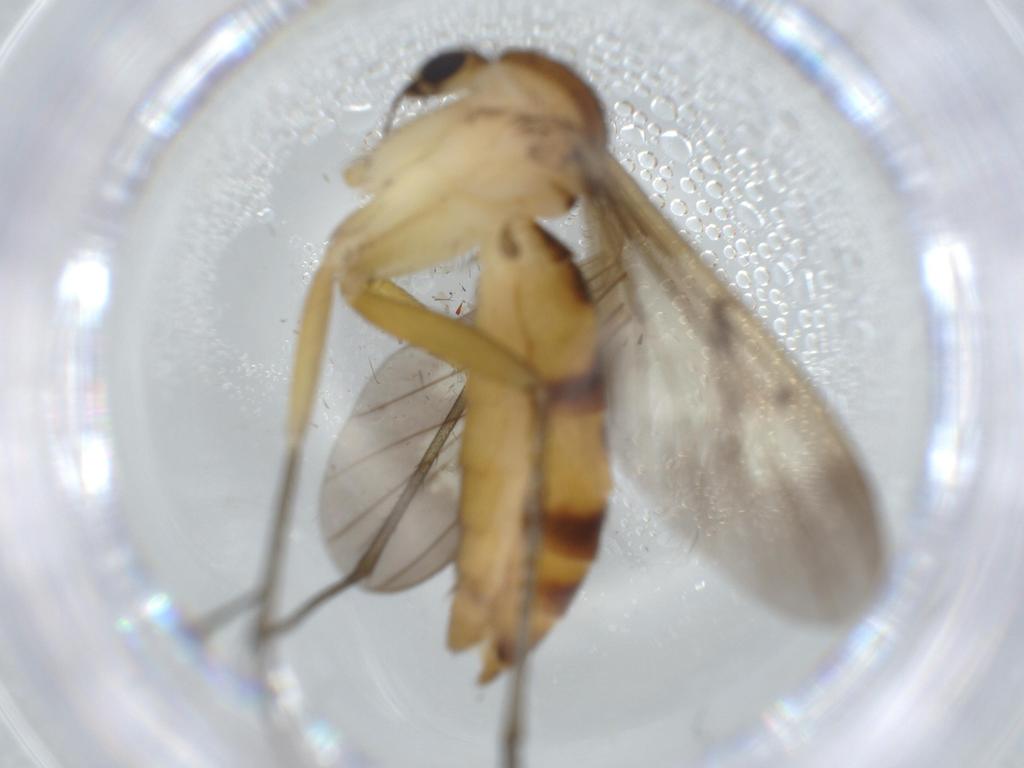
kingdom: Animalia
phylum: Arthropoda
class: Insecta
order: Diptera
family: Mycetophilidae
